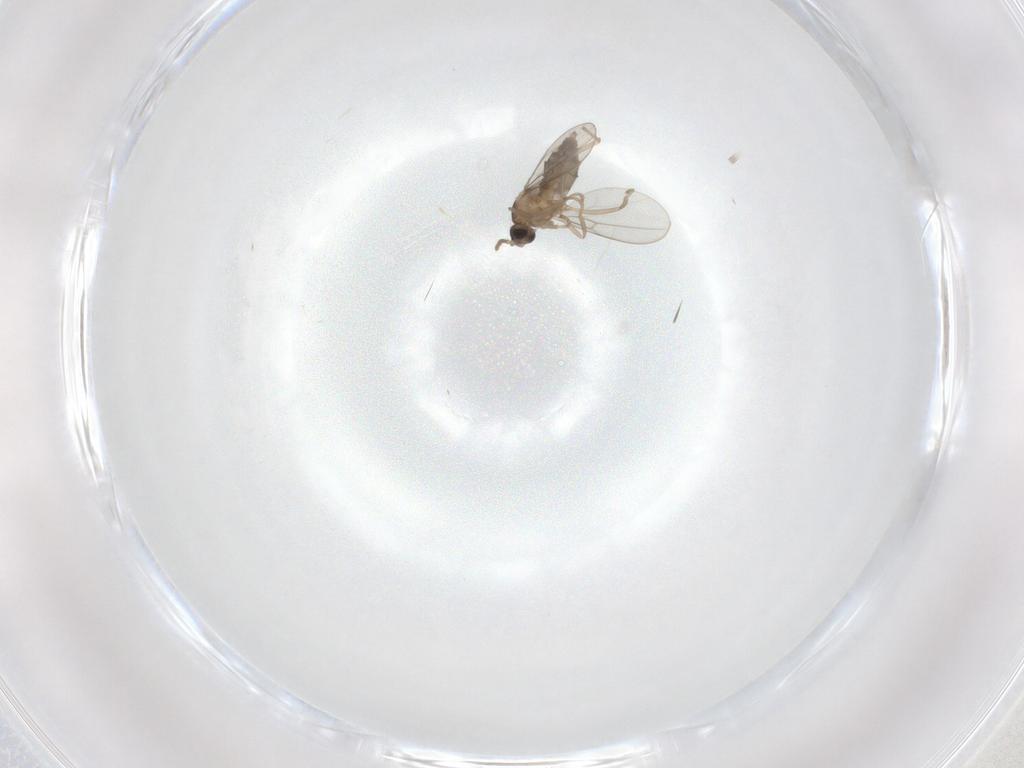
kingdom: Animalia
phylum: Arthropoda
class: Insecta
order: Diptera
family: Cecidomyiidae
